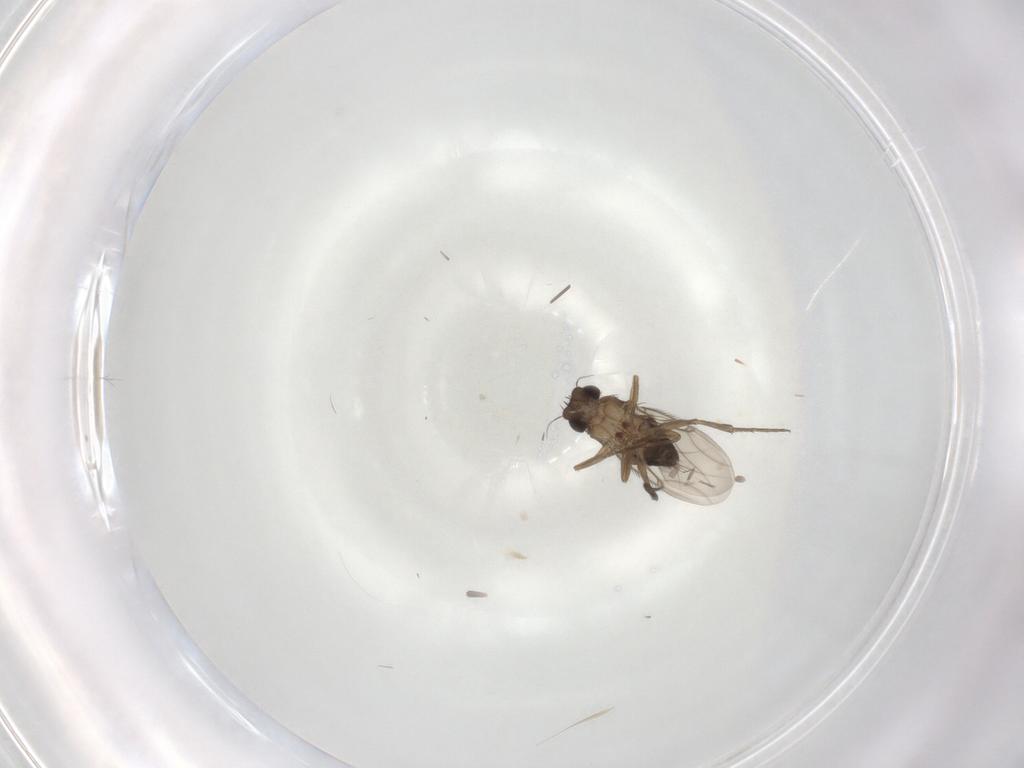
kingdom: Animalia
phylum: Arthropoda
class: Insecta
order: Diptera
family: Phoridae
